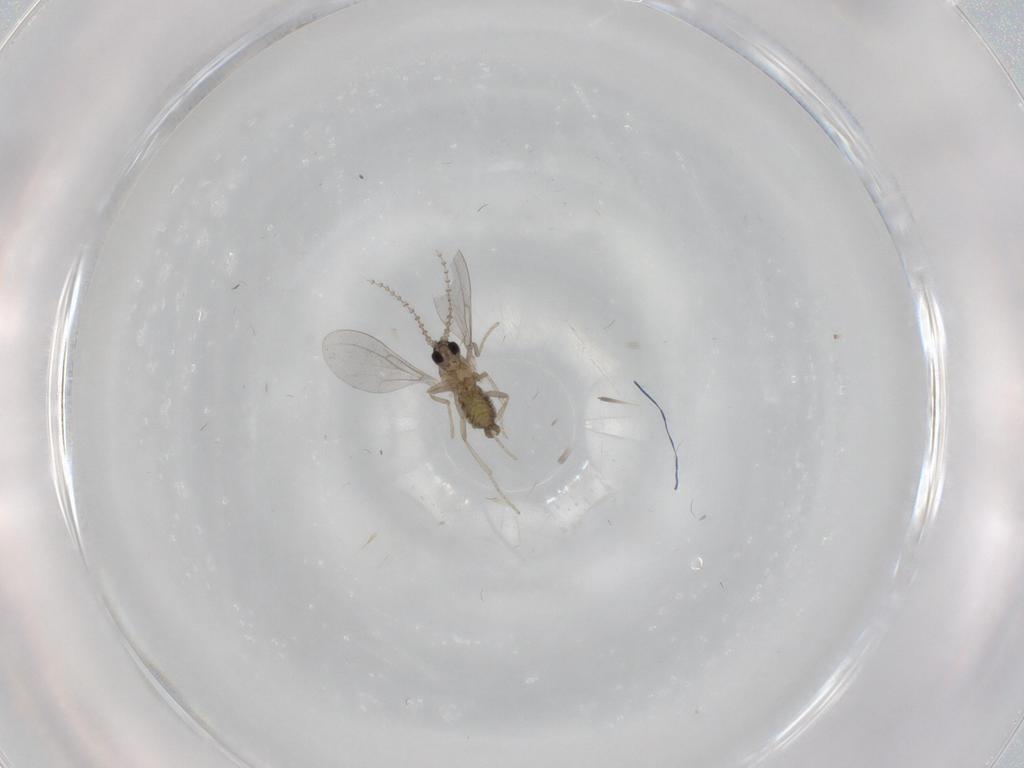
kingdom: Animalia
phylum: Arthropoda
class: Insecta
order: Diptera
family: Cecidomyiidae
